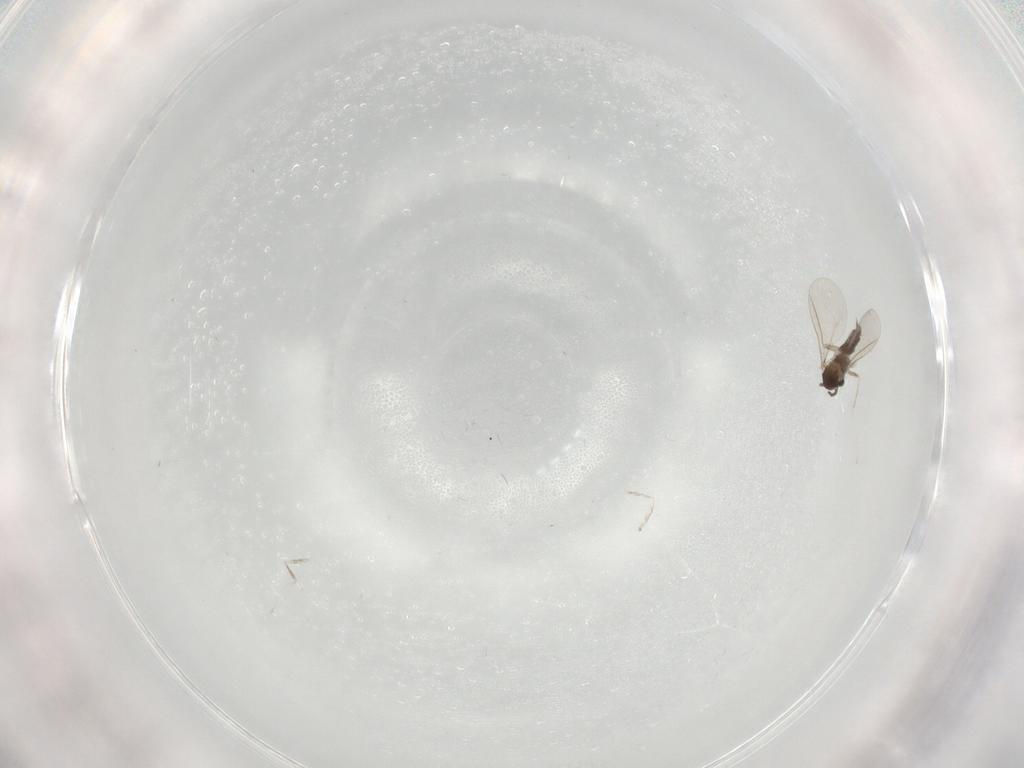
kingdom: Animalia
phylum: Arthropoda
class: Insecta
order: Diptera
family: Cecidomyiidae
